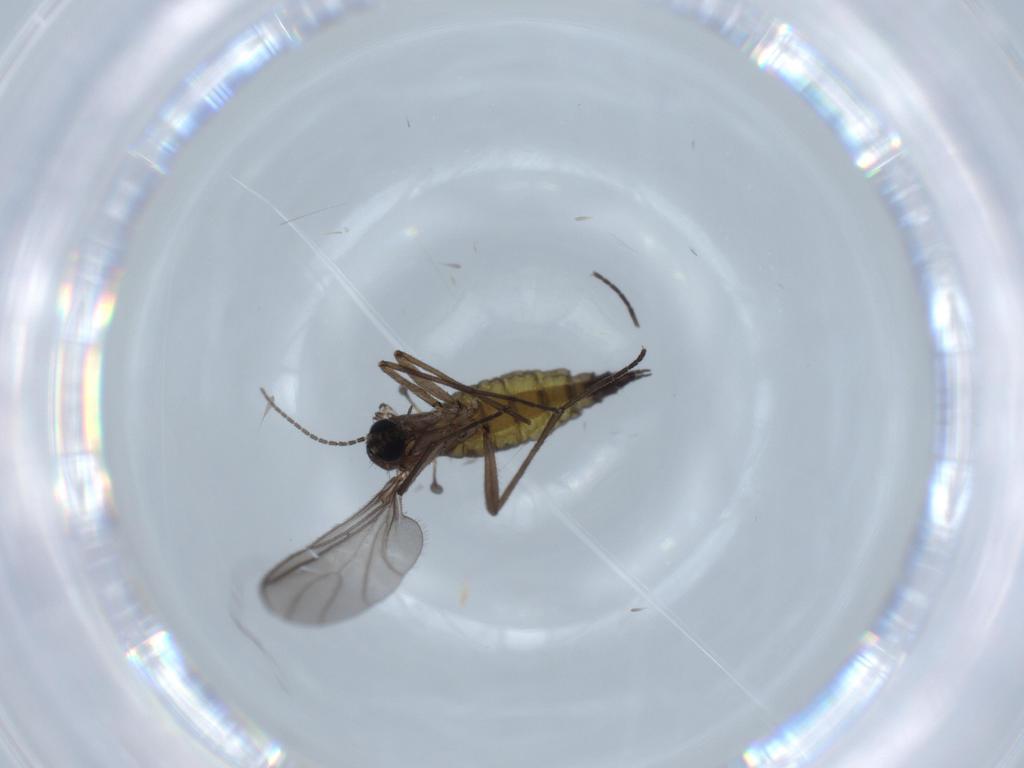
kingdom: Animalia
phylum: Arthropoda
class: Insecta
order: Diptera
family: Sciaridae
